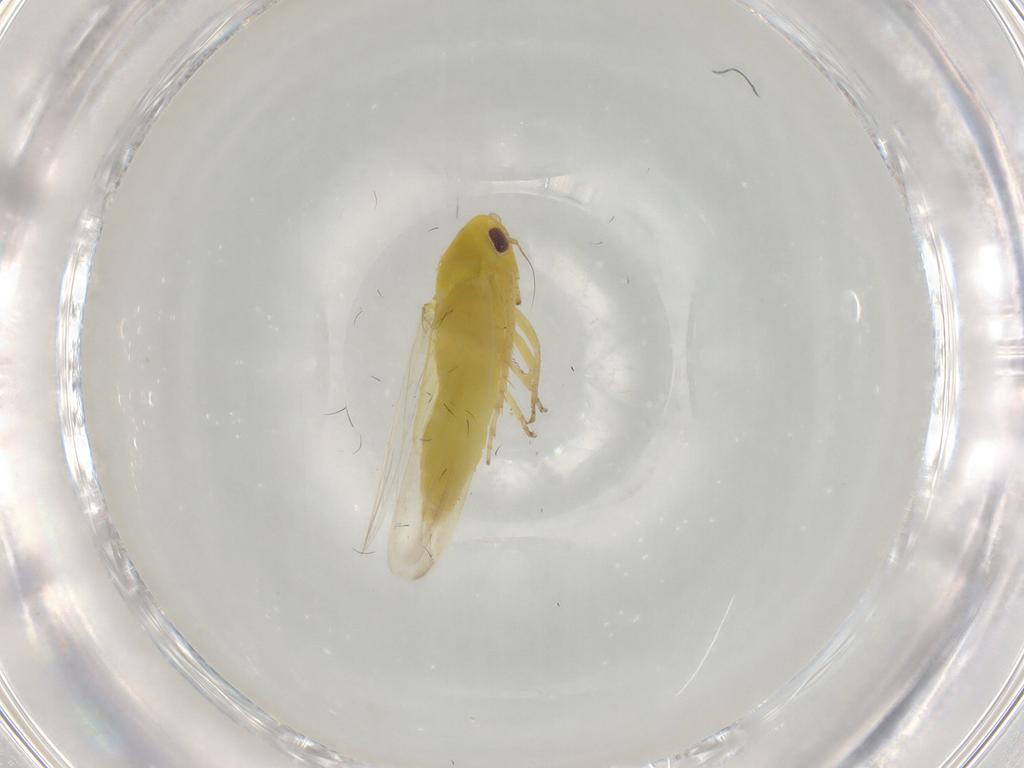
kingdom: Animalia
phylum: Arthropoda
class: Insecta
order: Hemiptera
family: Cicadellidae
